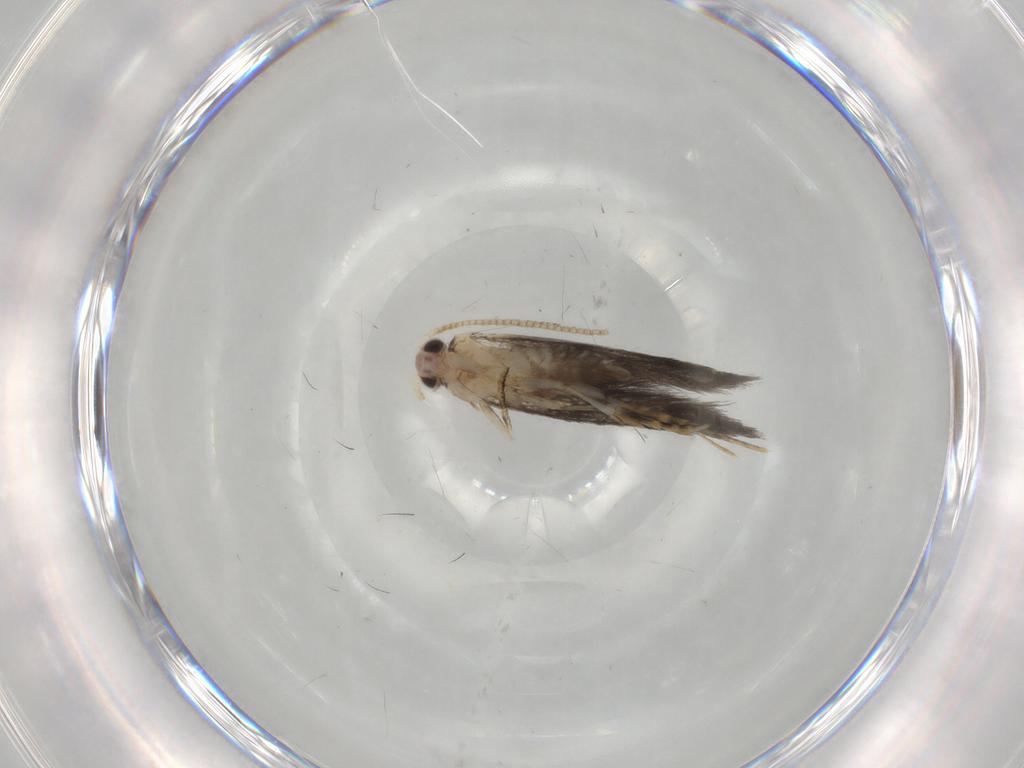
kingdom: Animalia
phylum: Arthropoda
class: Insecta
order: Lepidoptera
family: Tineidae
